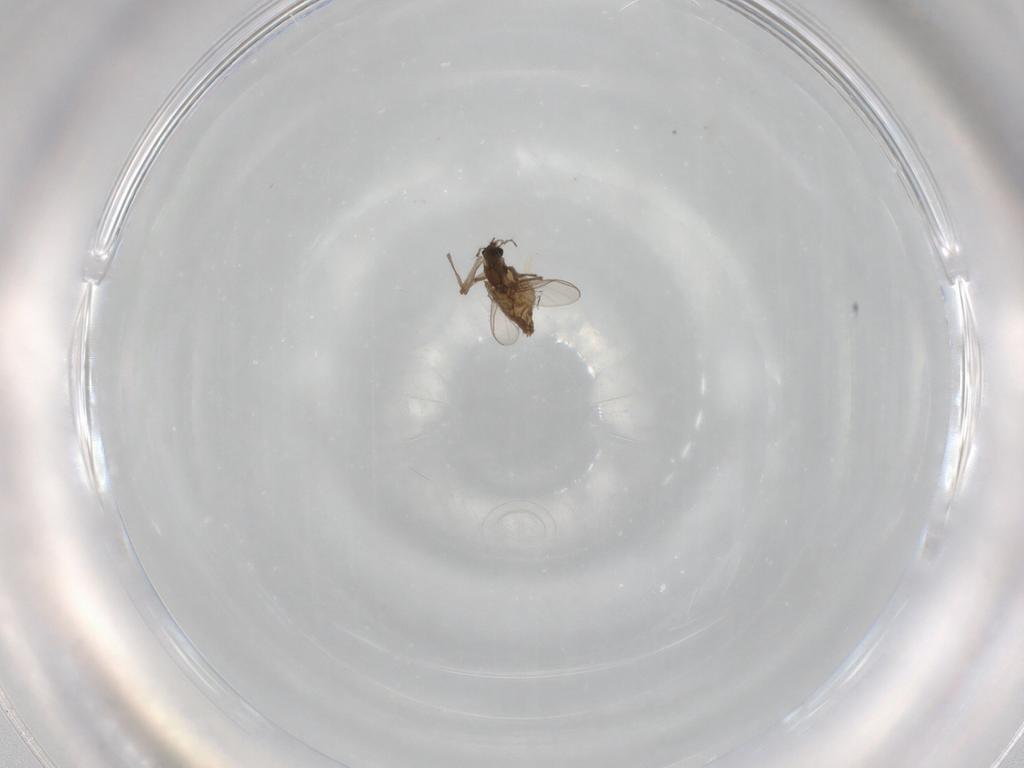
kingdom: Animalia
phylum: Arthropoda
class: Insecta
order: Diptera
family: Chironomidae
